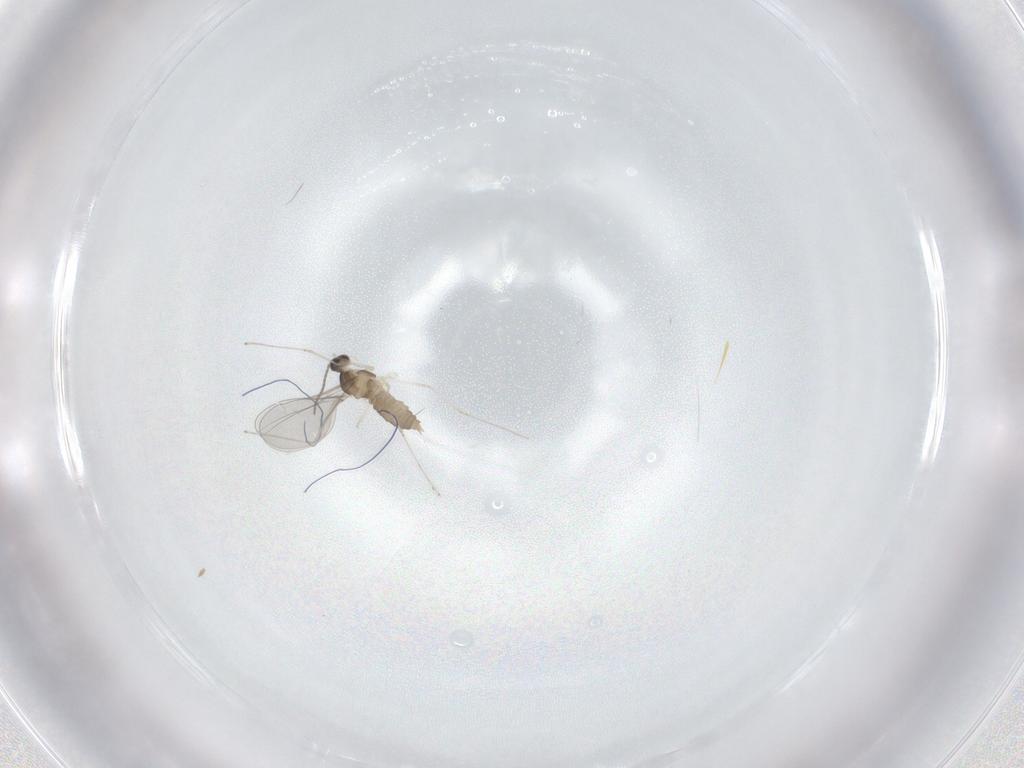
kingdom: Animalia
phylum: Arthropoda
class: Insecta
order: Diptera
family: Cecidomyiidae
